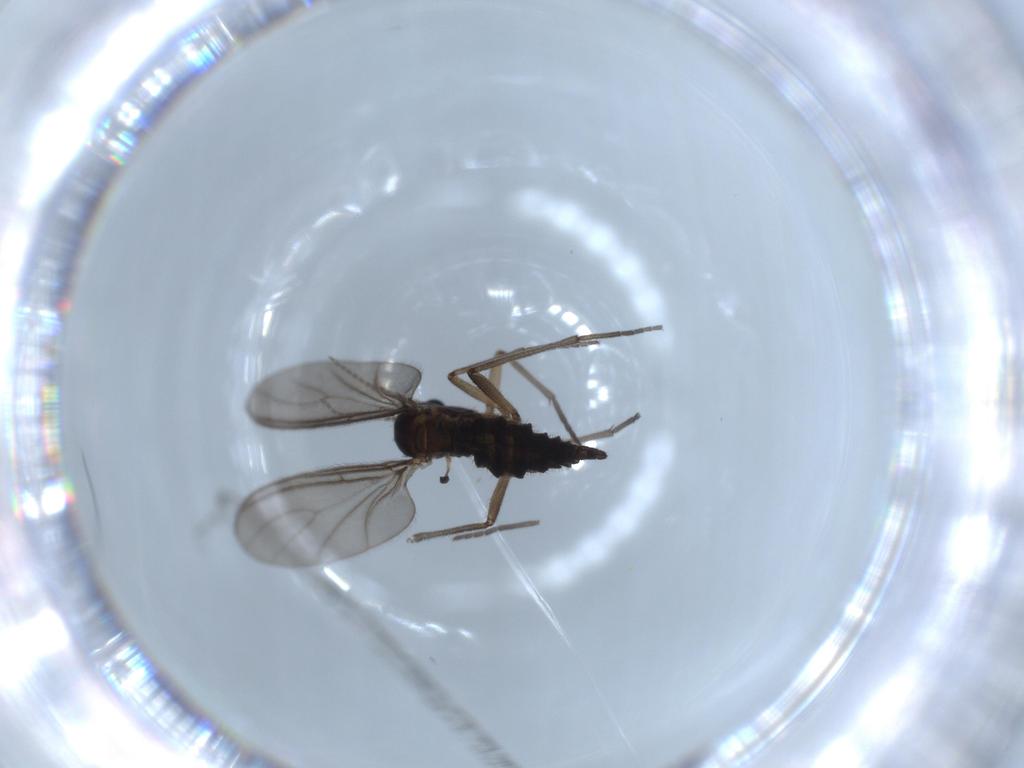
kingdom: Animalia
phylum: Arthropoda
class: Insecta
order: Diptera
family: Sciaridae
